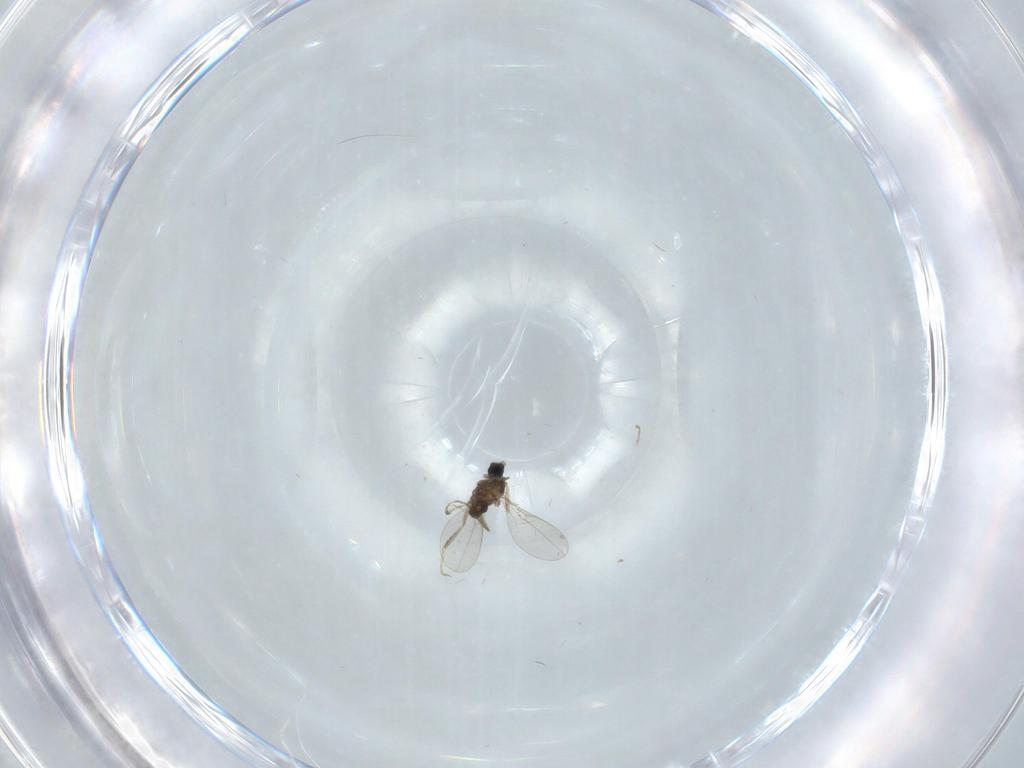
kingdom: Animalia
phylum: Arthropoda
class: Insecta
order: Diptera
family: Cecidomyiidae
